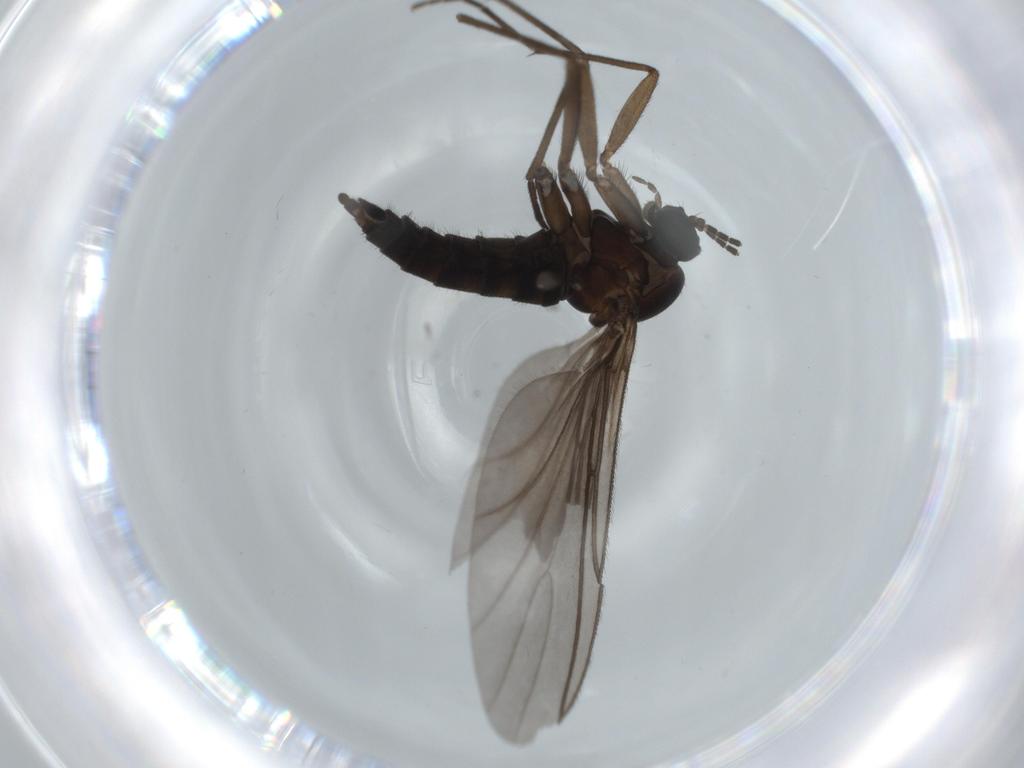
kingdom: Animalia
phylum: Arthropoda
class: Insecta
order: Diptera
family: Sciaridae
